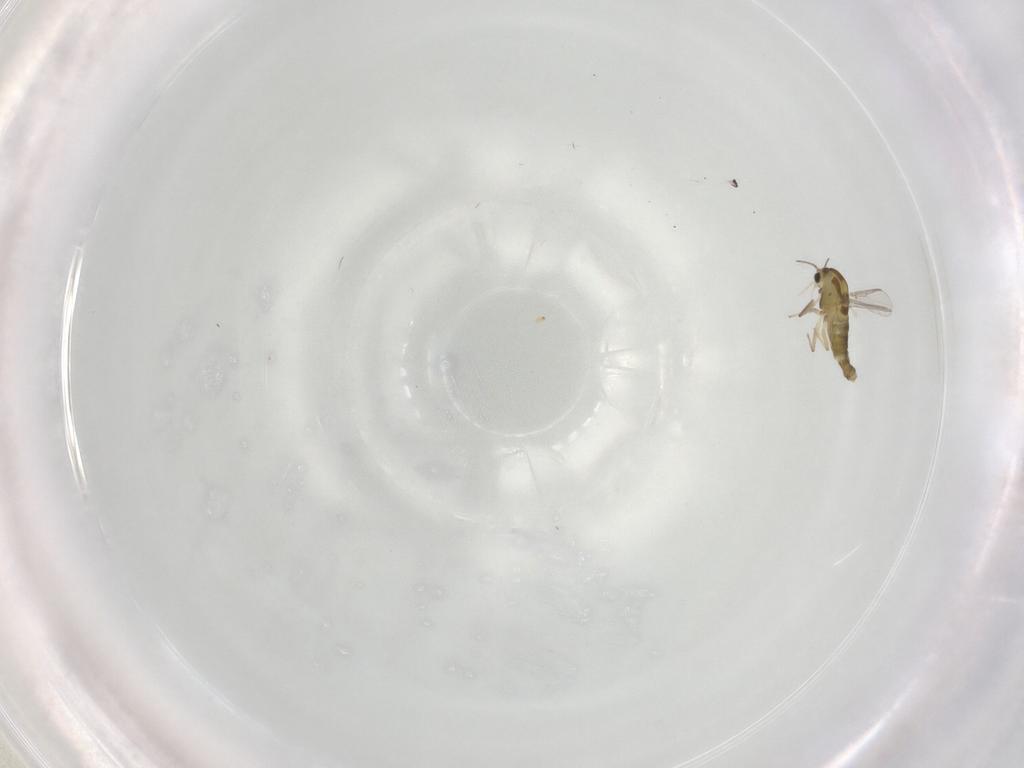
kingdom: Animalia
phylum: Arthropoda
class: Insecta
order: Diptera
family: Chironomidae
